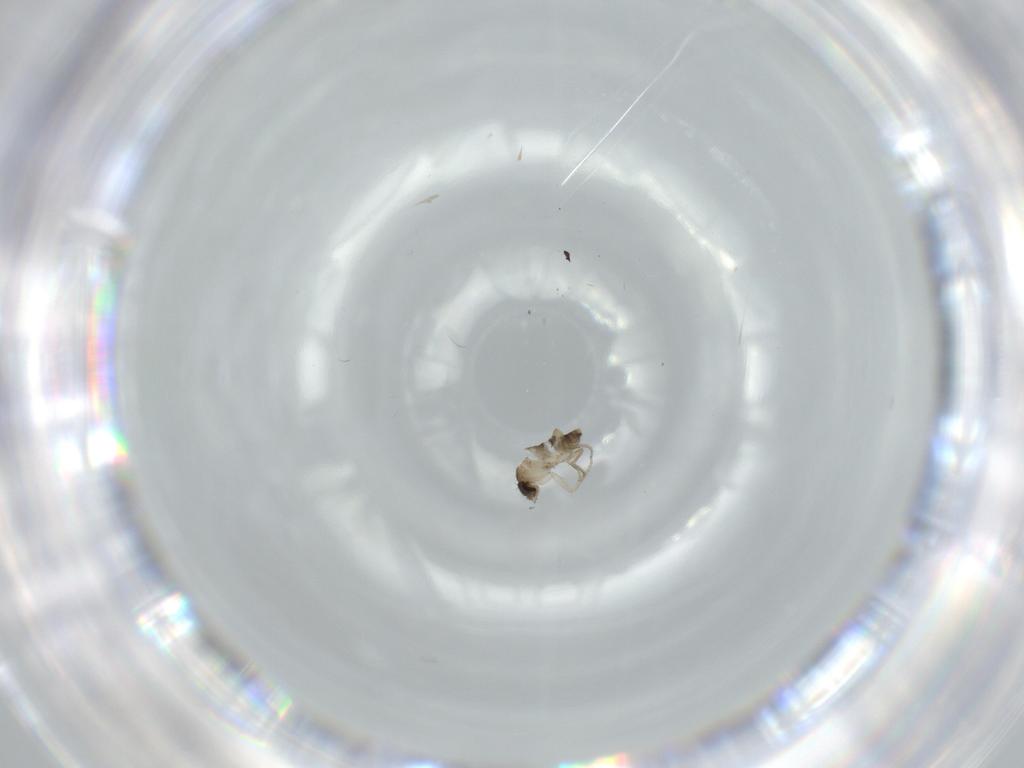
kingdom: Animalia
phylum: Arthropoda
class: Insecta
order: Diptera
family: Phoridae
